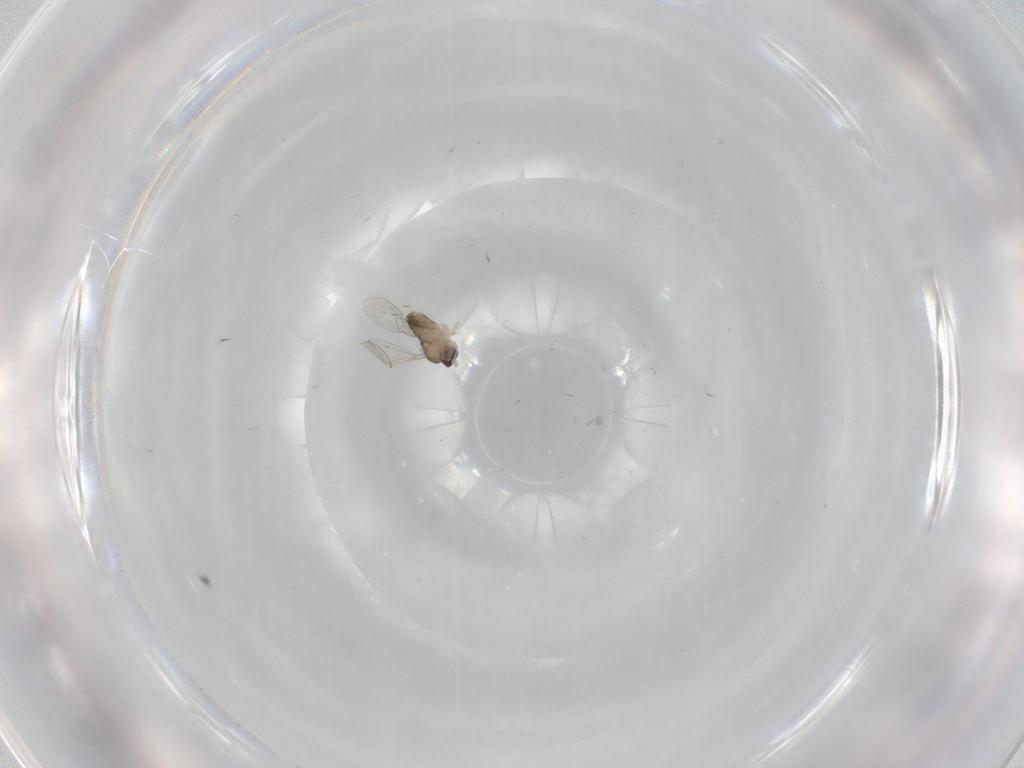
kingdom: Animalia
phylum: Arthropoda
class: Insecta
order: Diptera
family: Cecidomyiidae
